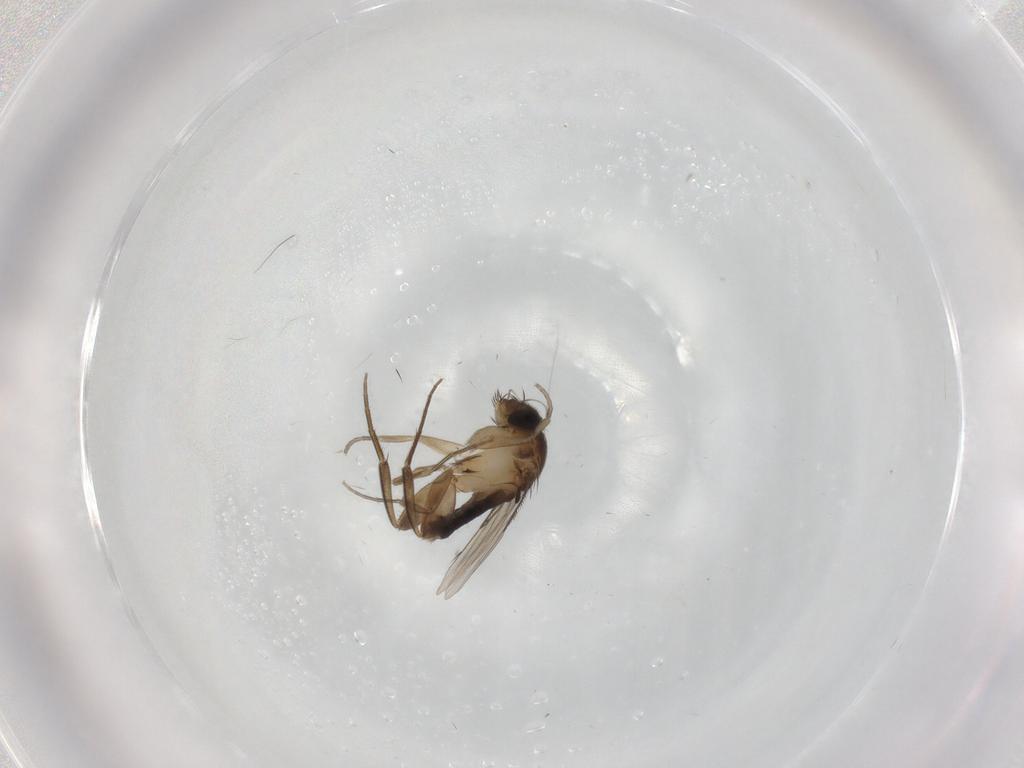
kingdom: Animalia
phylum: Arthropoda
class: Insecta
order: Diptera
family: Phoridae
